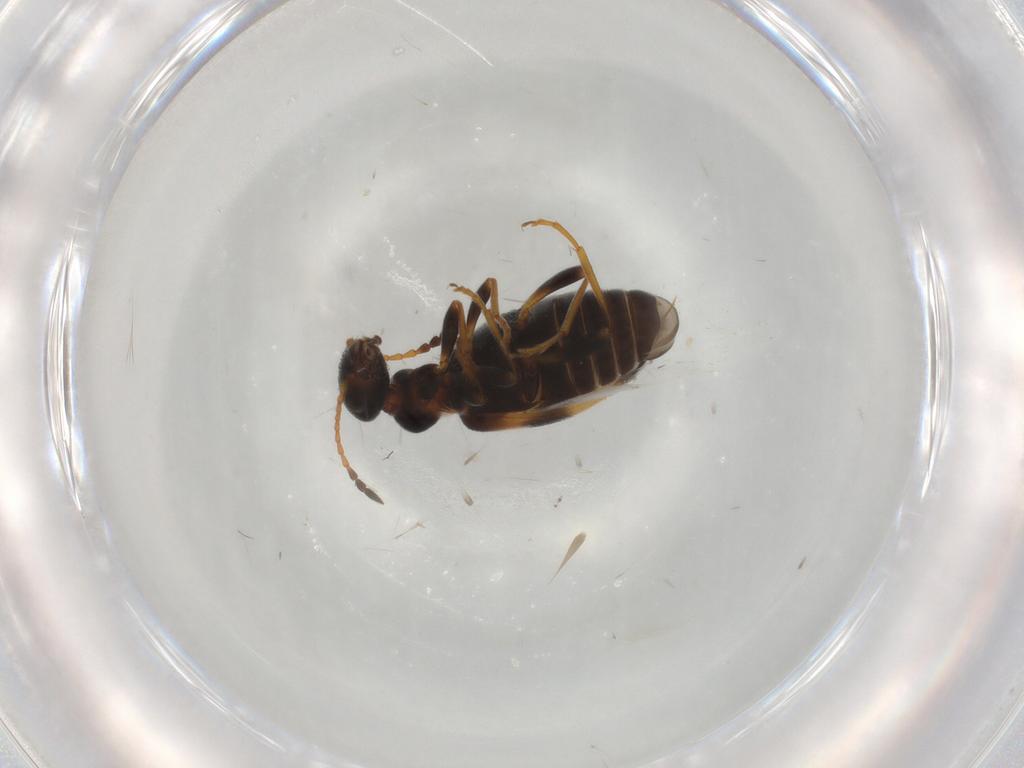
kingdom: Animalia
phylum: Arthropoda
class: Insecta
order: Coleoptera
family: Anthicidae
